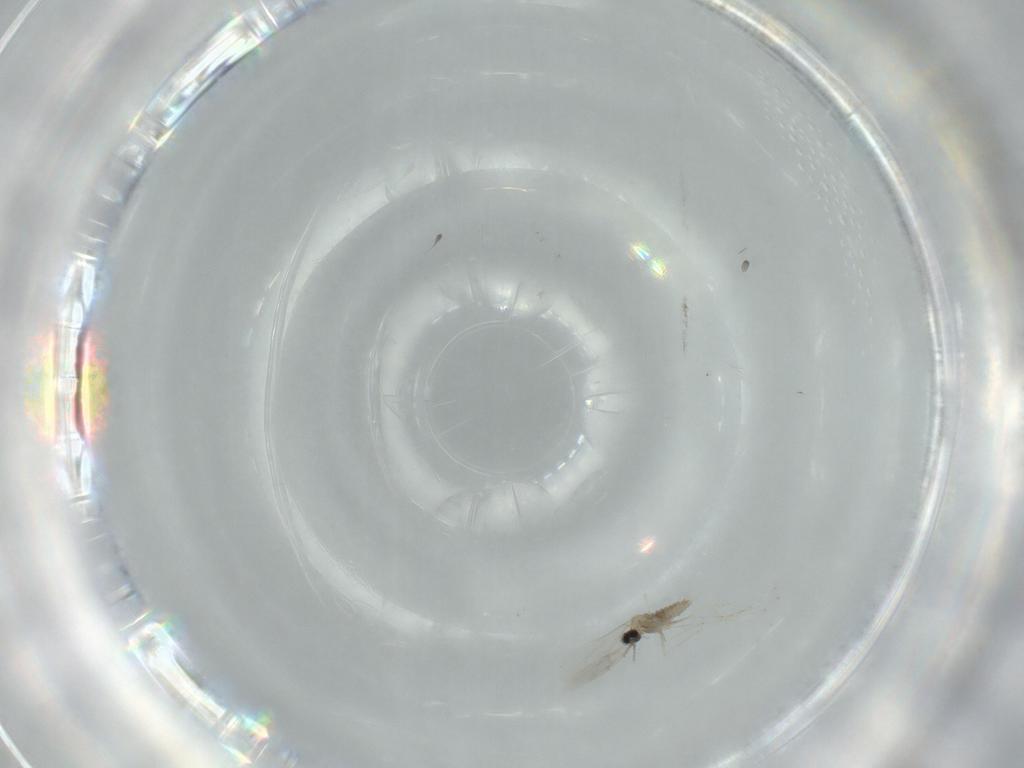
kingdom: Animalia
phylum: Arthropoda
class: Insecta
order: Diptera
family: Cecidomyiidae
